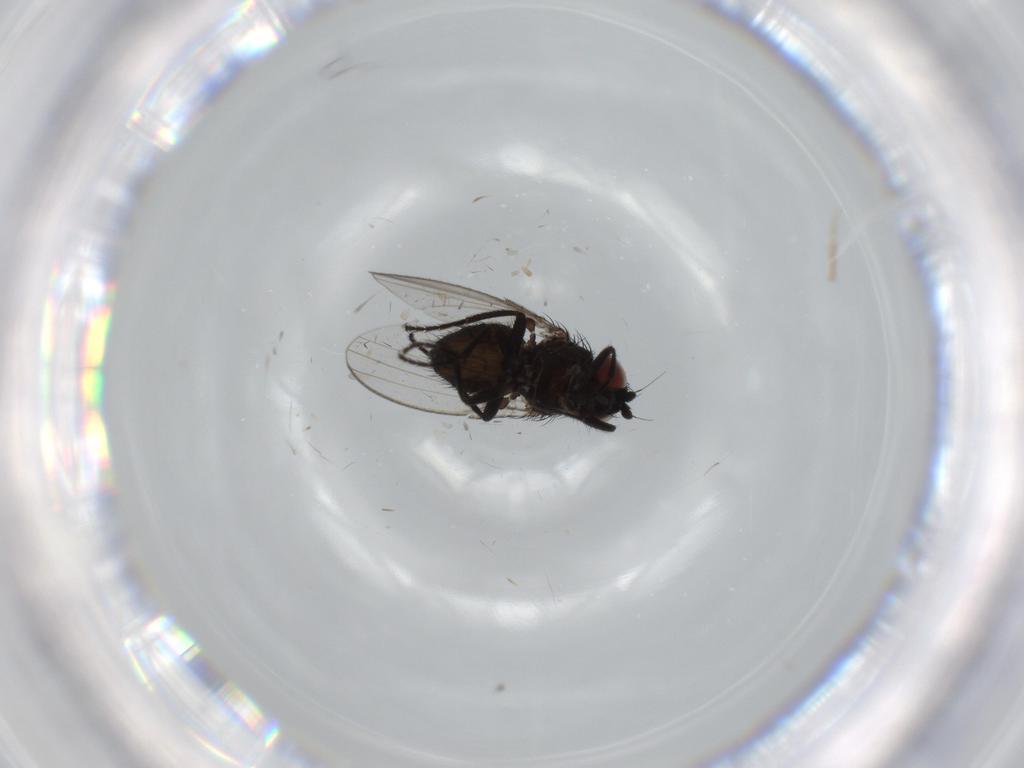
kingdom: Animalia
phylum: Arthropoda
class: Insecta
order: Diptera
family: Milichiidae
